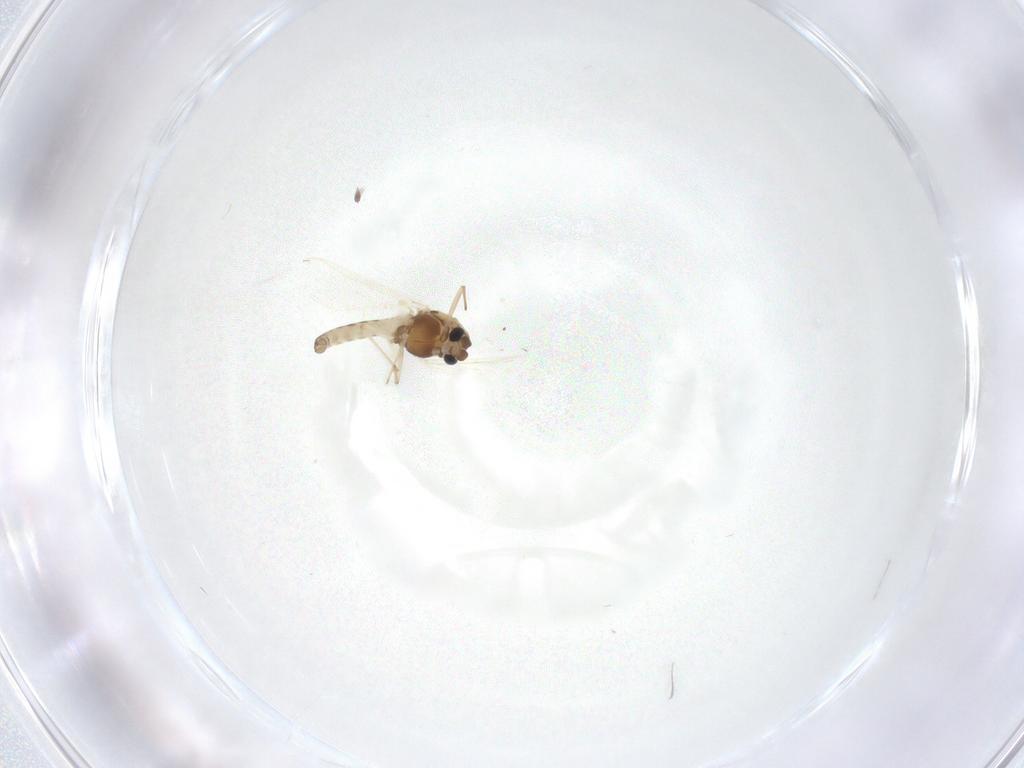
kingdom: Animalia
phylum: Arthropoda
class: Insecta
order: Diptera
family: Chironomidae
